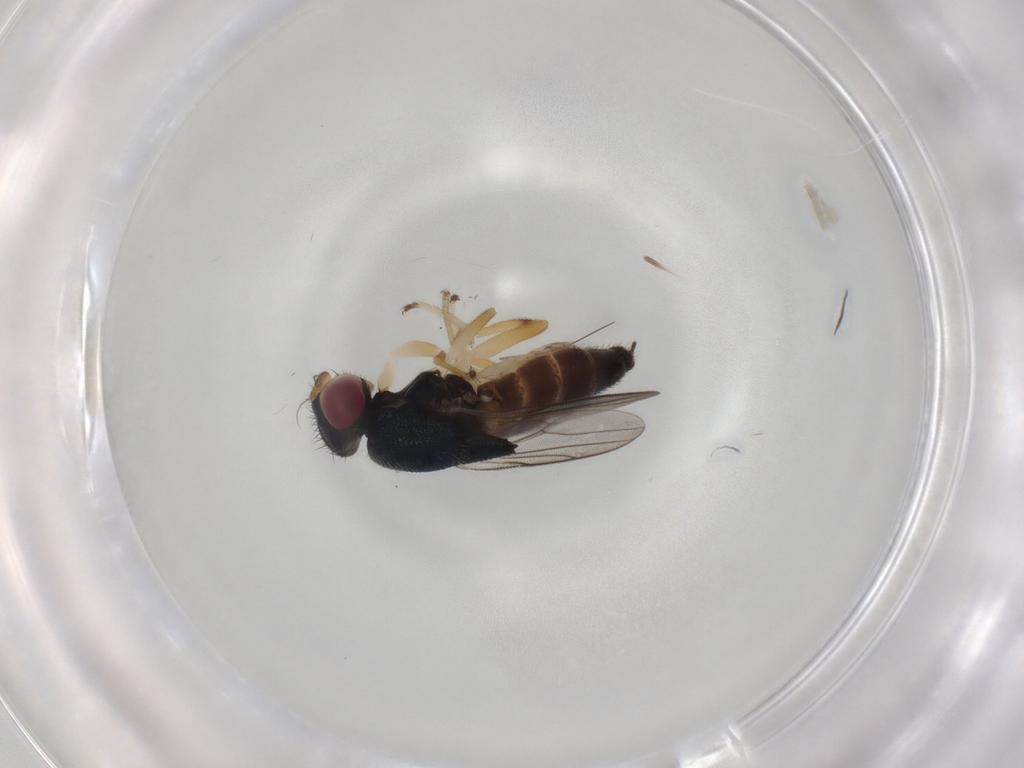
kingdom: Animalia
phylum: Arthropoda
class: Insecta
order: Diptera
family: Chloropidae
